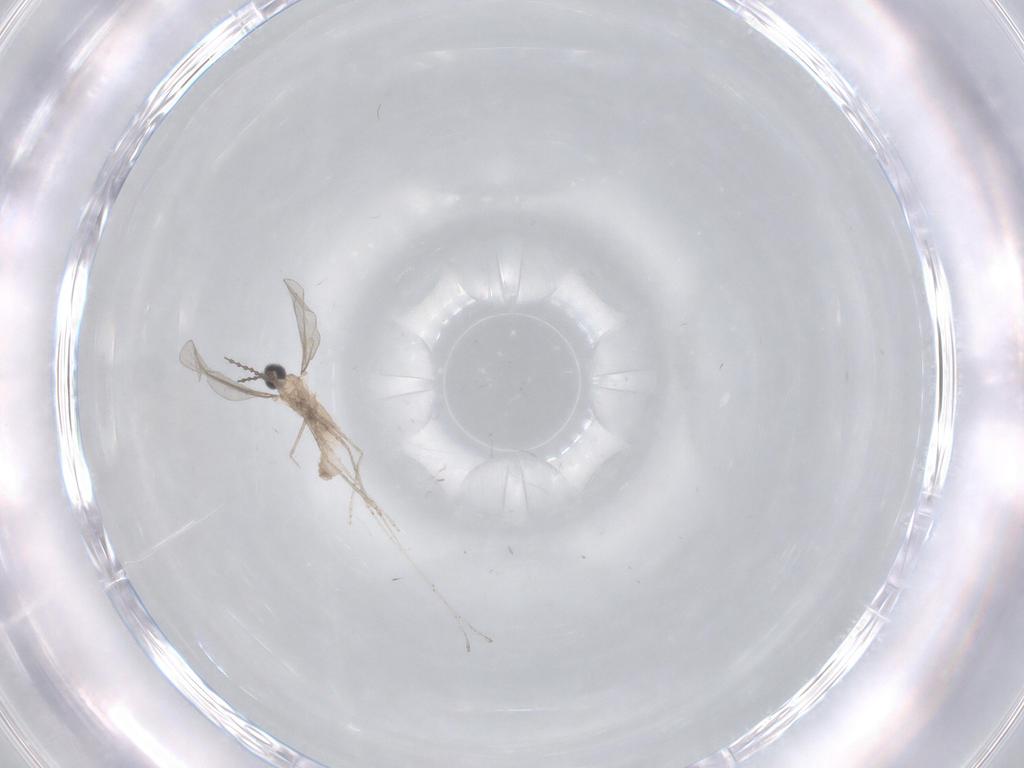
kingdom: Animalia
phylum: Arthropoda
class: Insecta
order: Diptera
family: Cecidomyiidae
